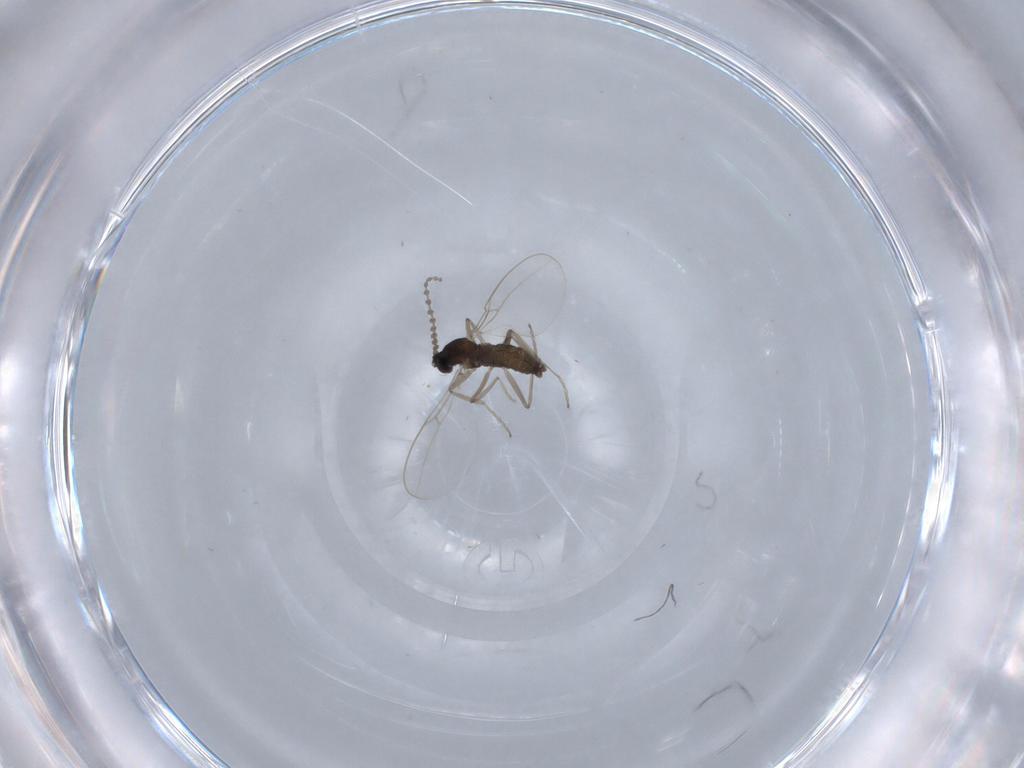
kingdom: Animalia
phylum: Arthropoda
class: Insecta
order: Diptera
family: Cecidomyiidae
